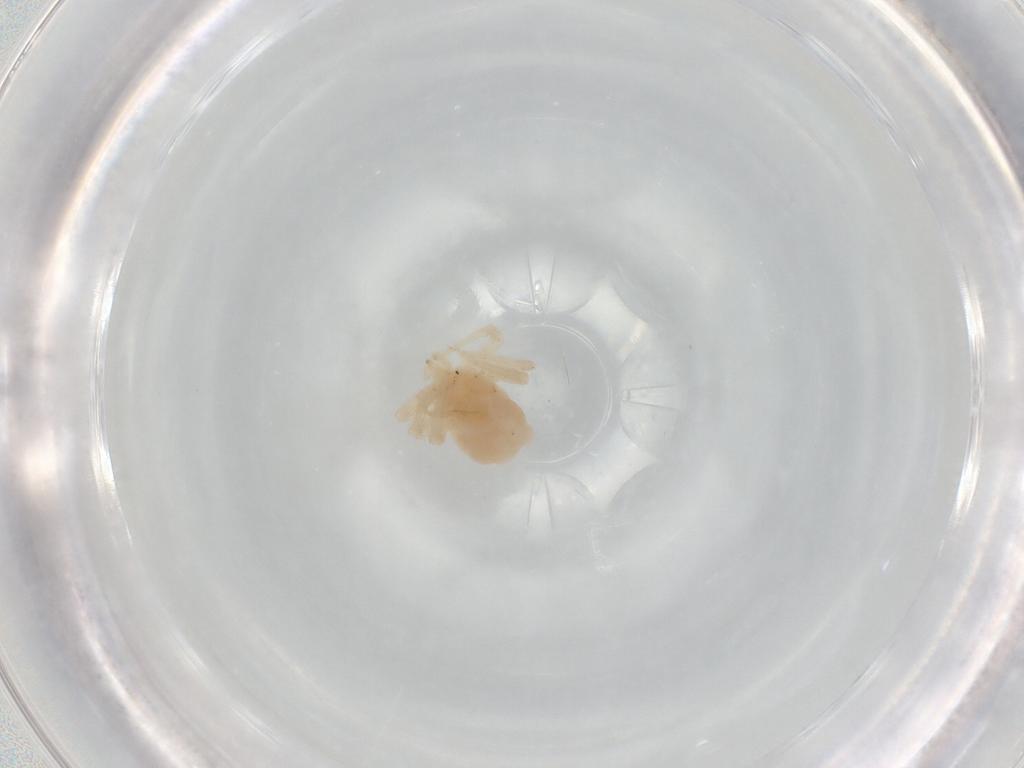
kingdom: Animalia
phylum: Arthropoda
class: Arachnida
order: Trombidiformes
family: Anystidae
